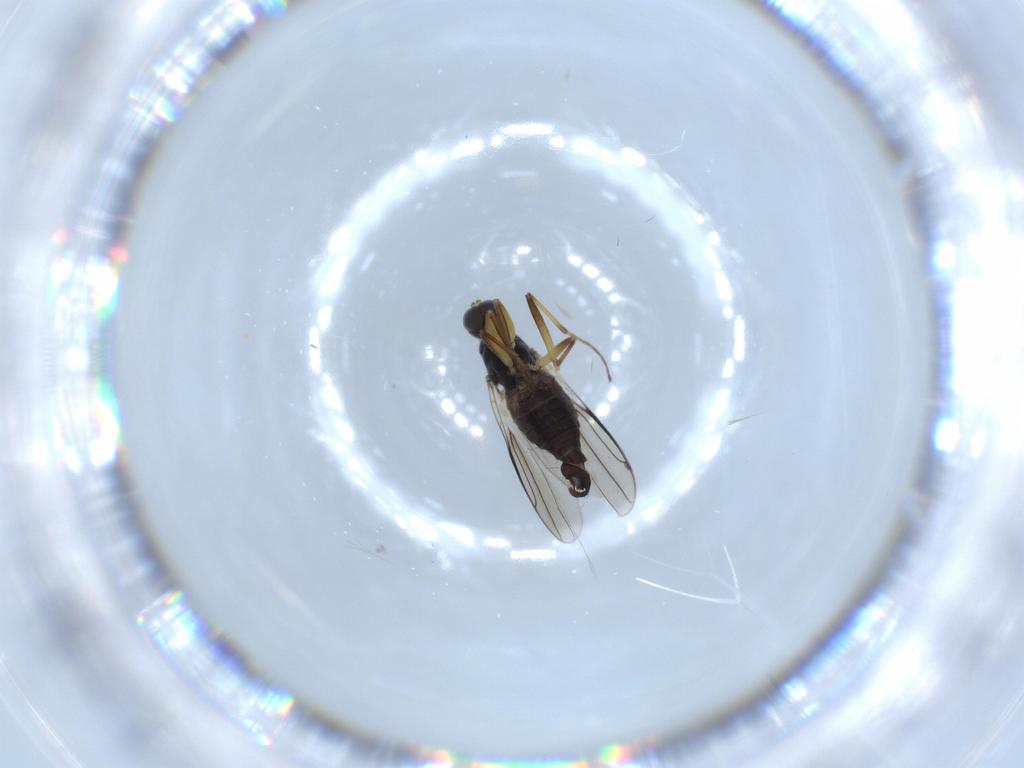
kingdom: Animalia
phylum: Arthropoda
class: Insecta
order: Diptera
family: Hybotidae
